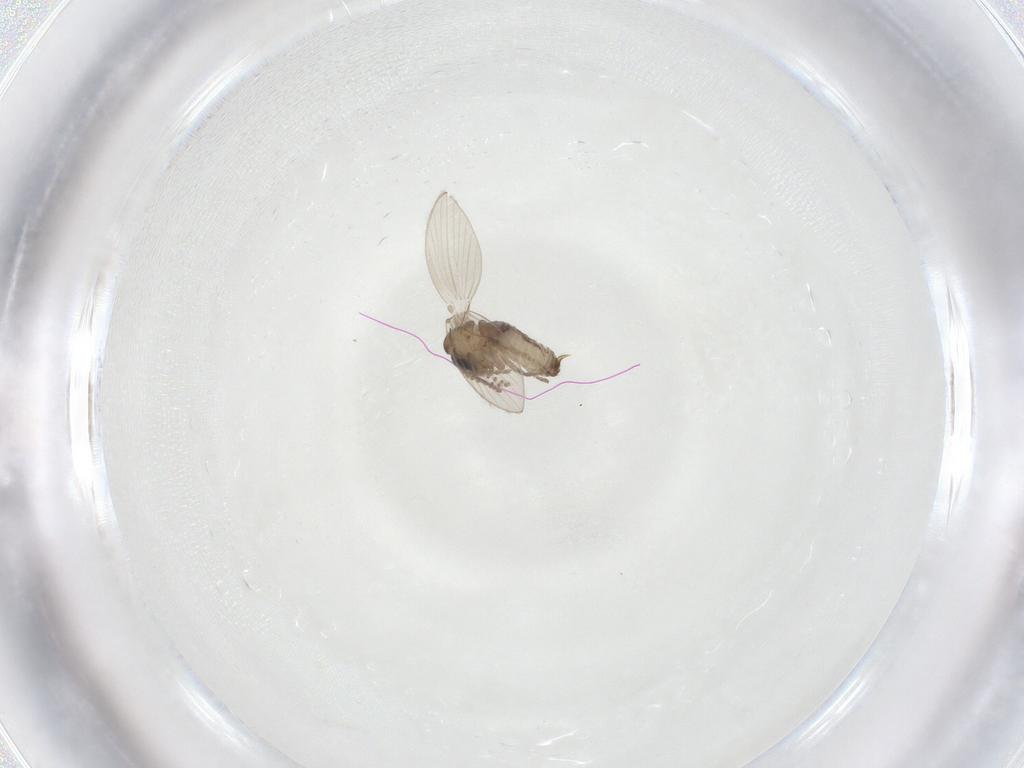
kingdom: Animalia
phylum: Arthropoda
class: Insecta
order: Diptera
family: Psychodidae
